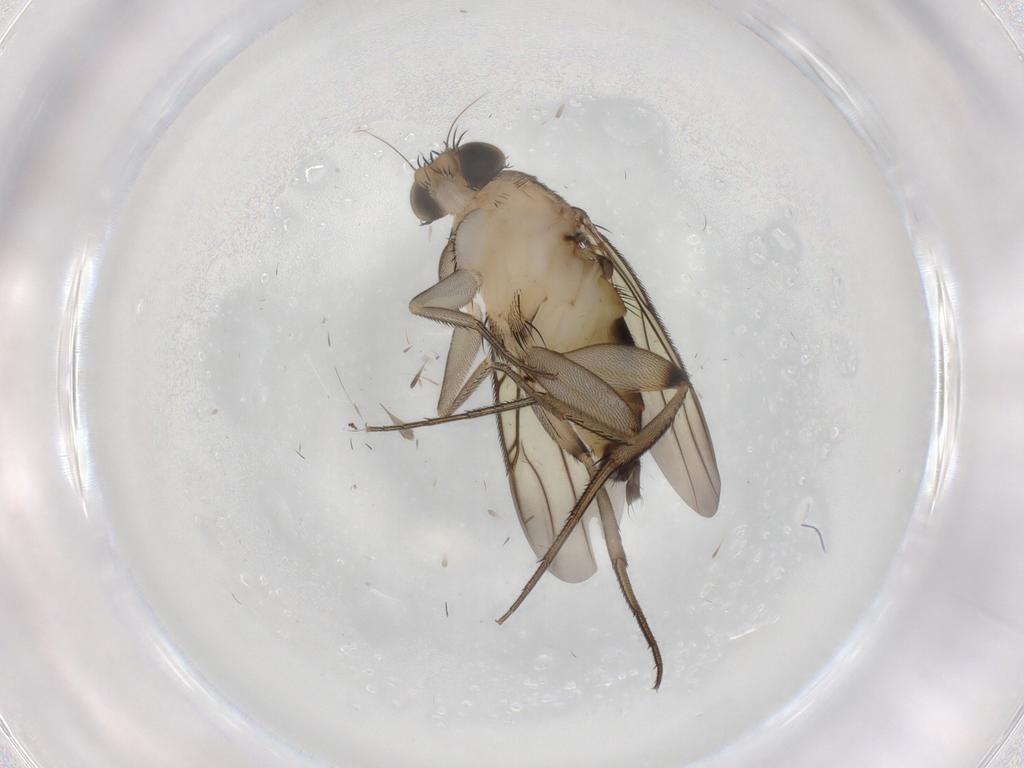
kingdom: Animalia
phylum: Arthropoda
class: Insecta
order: Diptera
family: Phoridae
